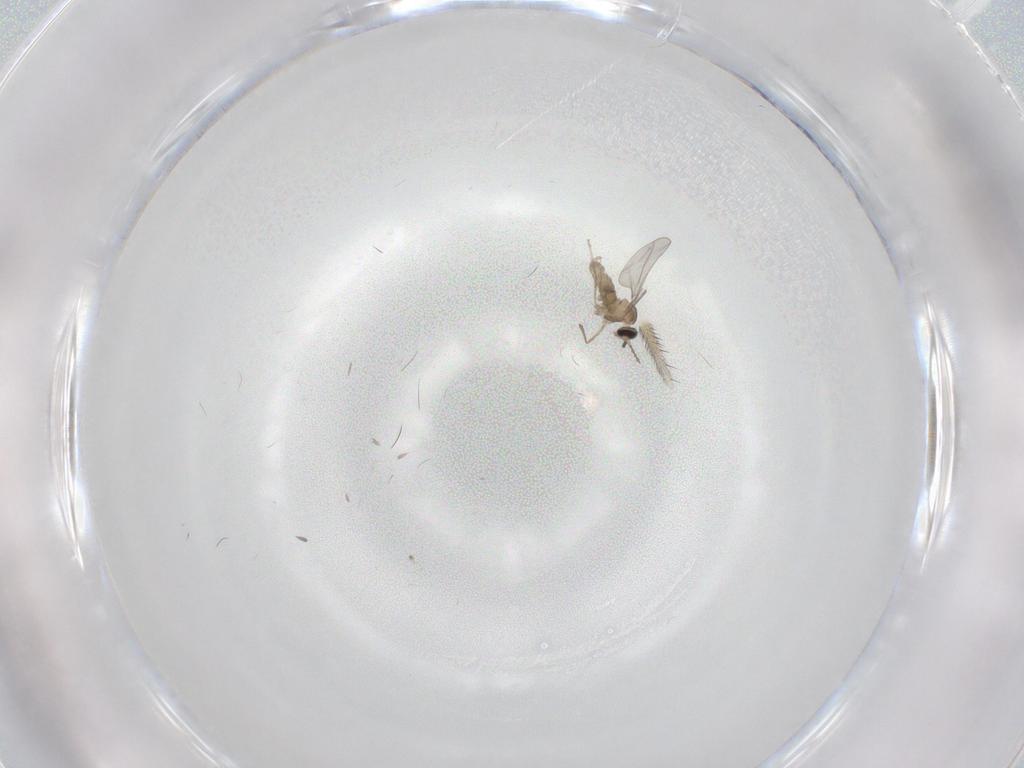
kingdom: Animalia
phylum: Arthropoda
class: Insecta
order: Diptera
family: Cecidomyiidae
